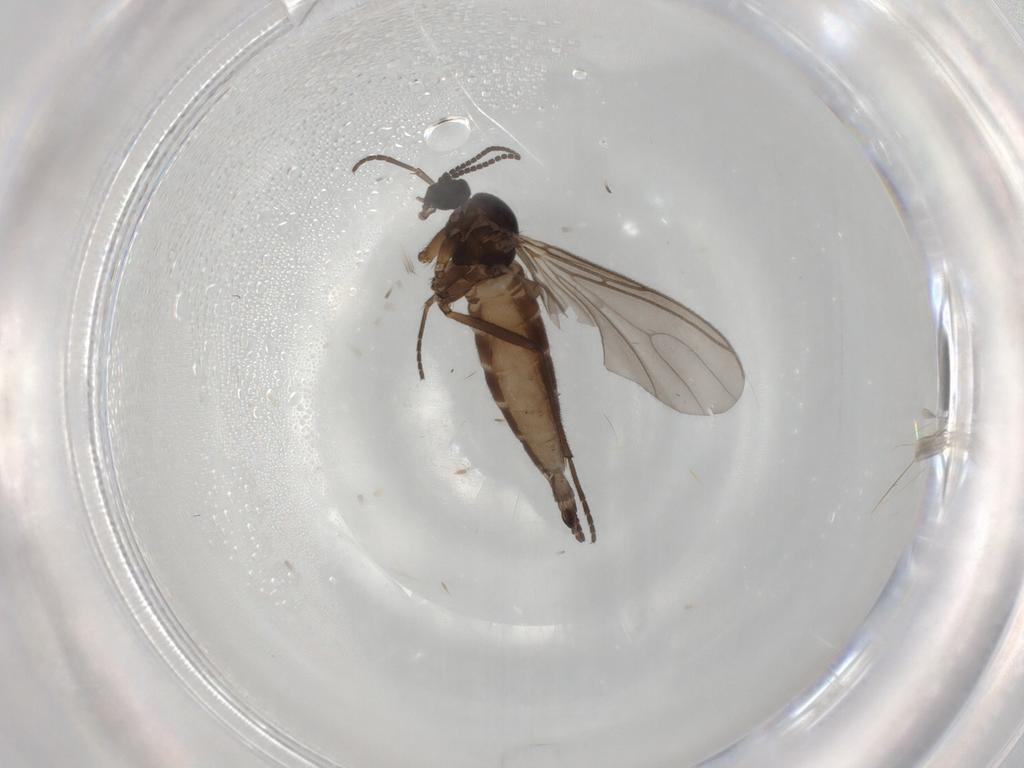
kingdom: Animalia
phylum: Arthropoda
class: Insecta
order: Diptera
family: Sciaridae
